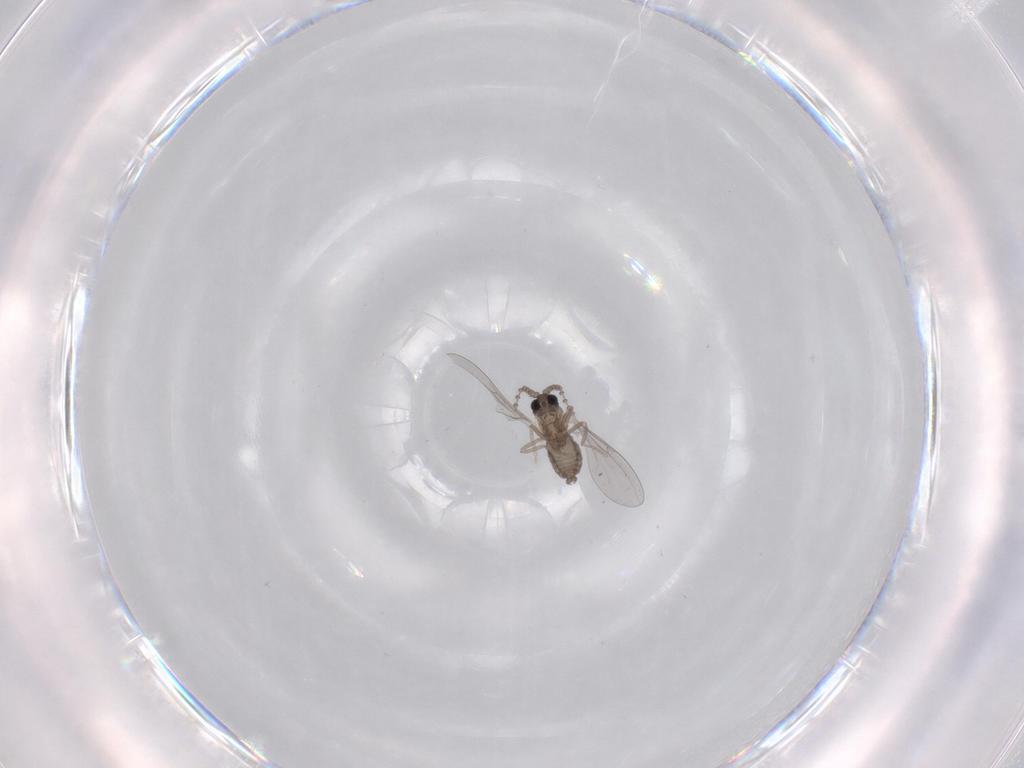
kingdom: Animalia
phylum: Arthropoda
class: Insecta
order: Diptera
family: Cecidomyiidae
